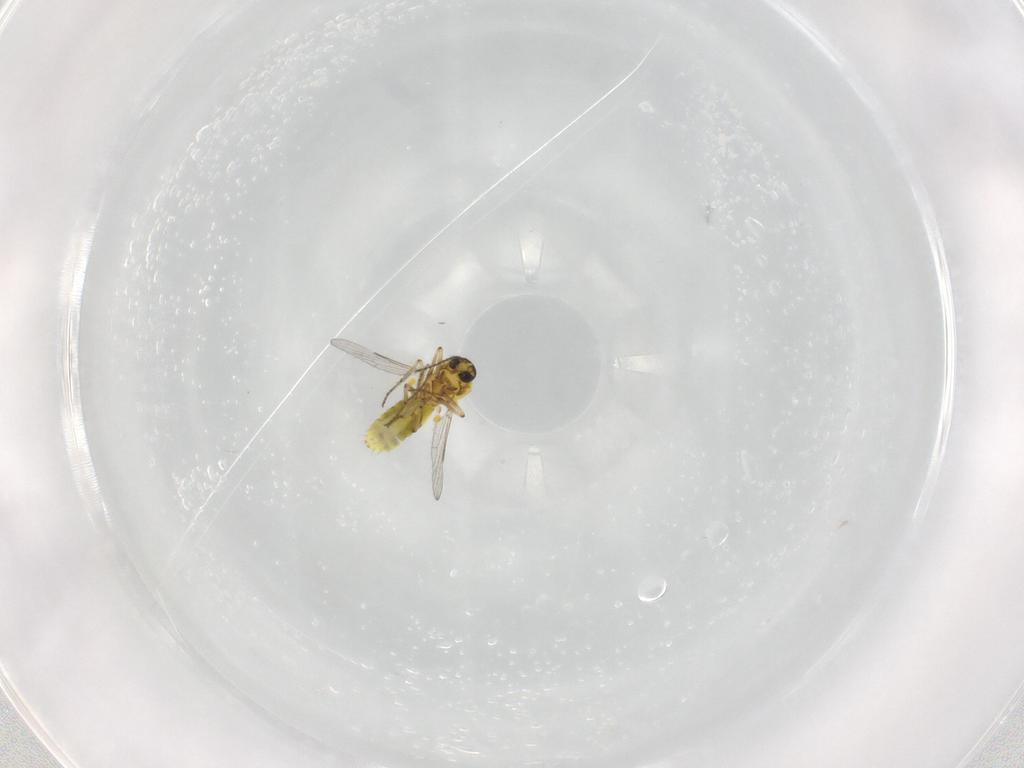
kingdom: Animalia
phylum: Arthropoda
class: Insecta
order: Diptera
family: Ceratopogonidae
